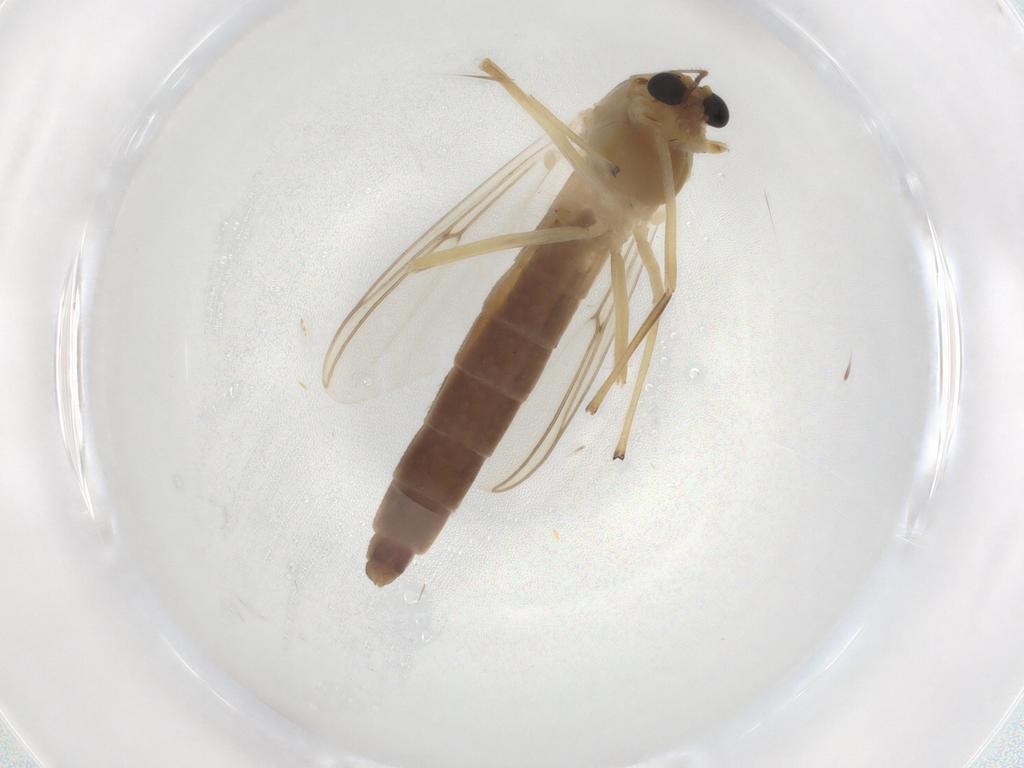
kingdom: Animalia
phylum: Arthropoda
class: Insecta
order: Diptera
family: Chironomidae
